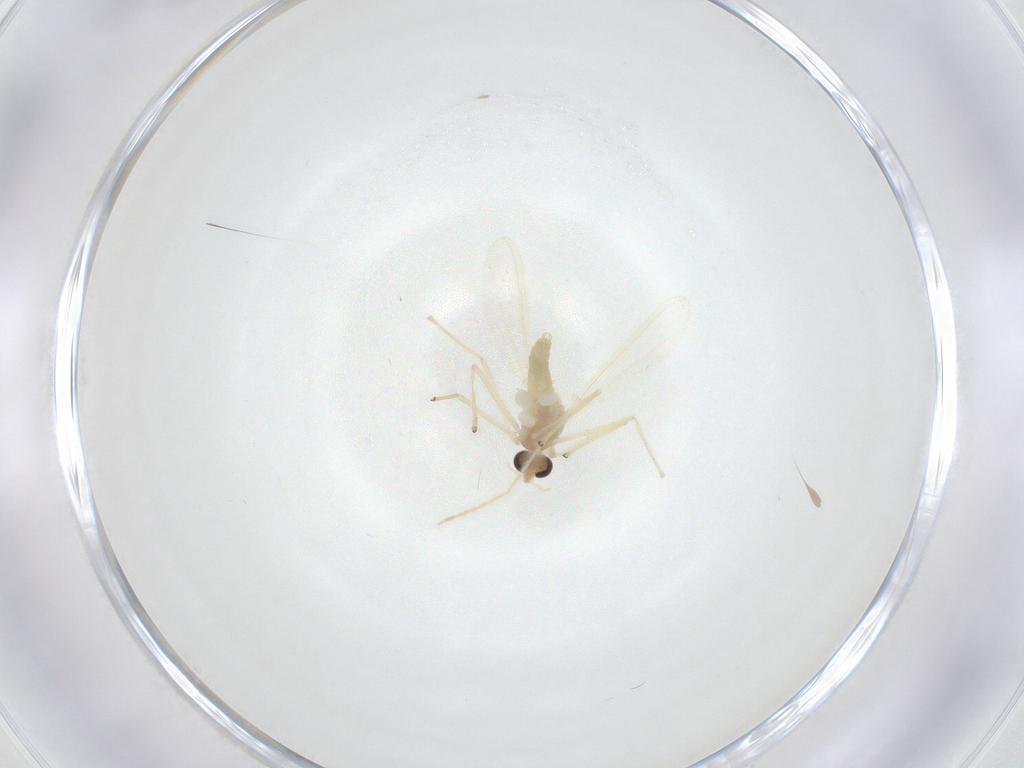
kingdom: Animalia
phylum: Arthropoda
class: Insecta
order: Diptera
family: Chironomidae
